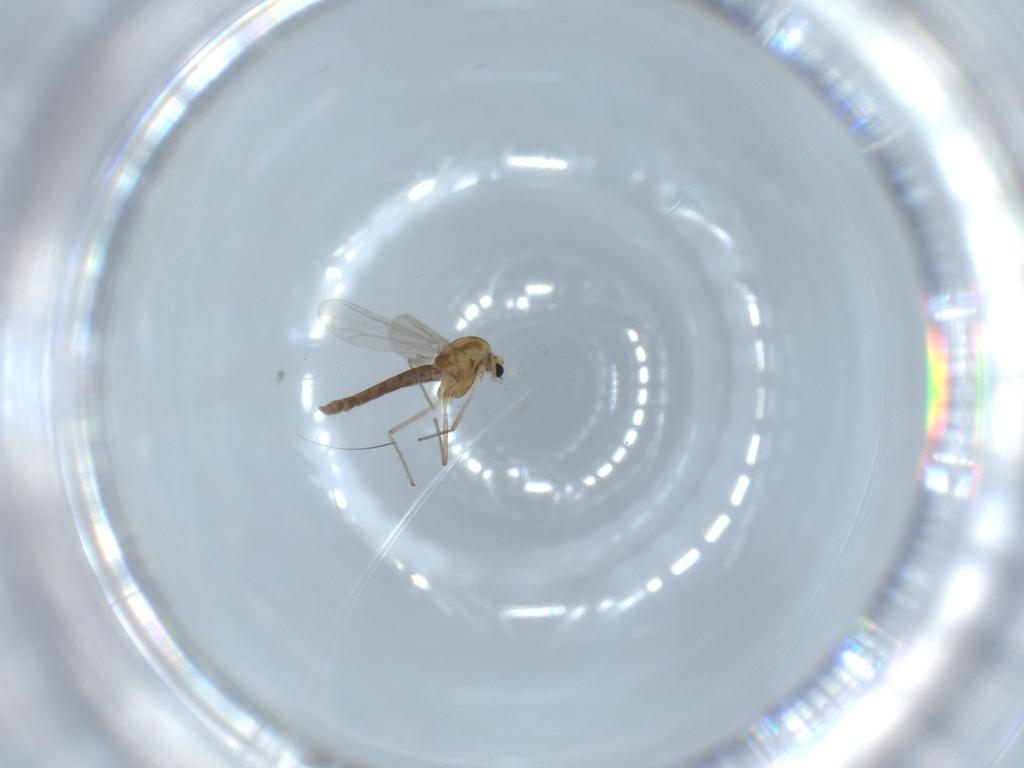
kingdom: Animalia
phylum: Arthropoda
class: Insecta
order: Diptera
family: Chironomidae
